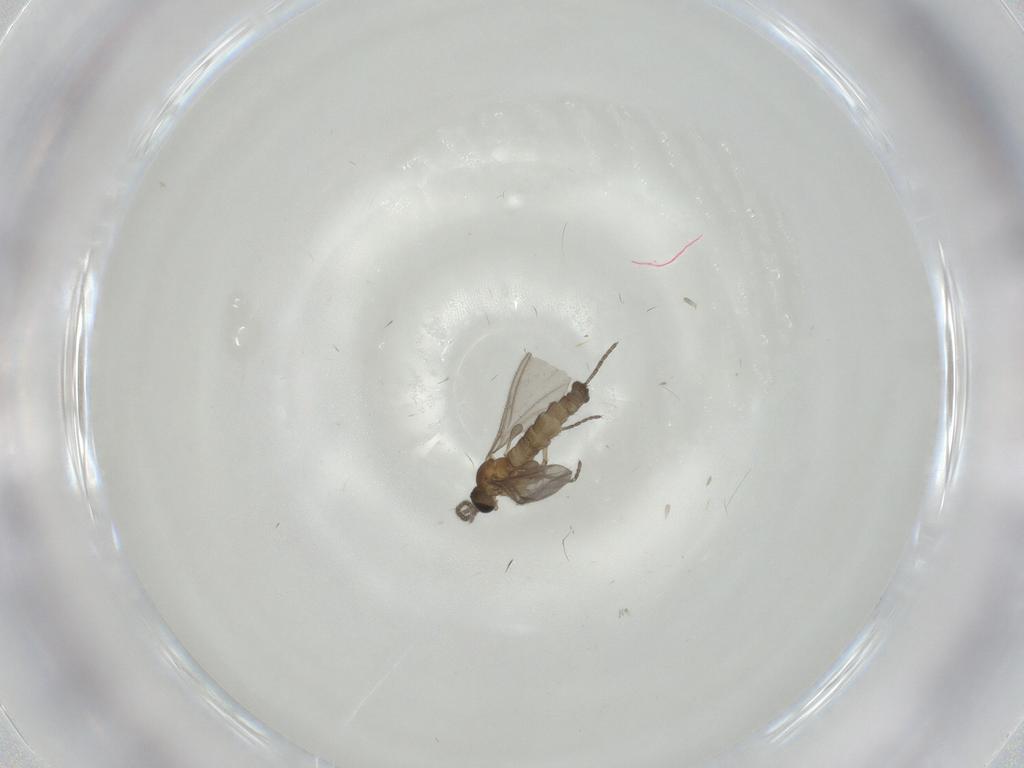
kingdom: Animalia
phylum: Arthropoda
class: Insecta
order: Diptera
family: Sciaridae
